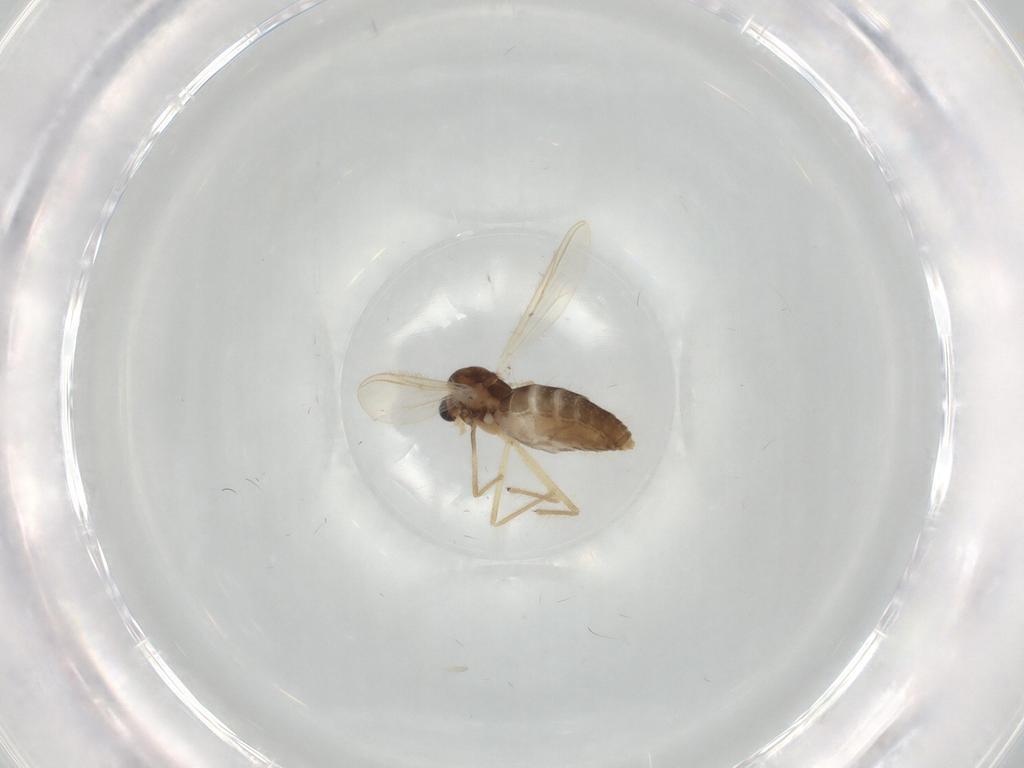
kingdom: Animalia
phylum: Arthropoda
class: Insecta
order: Diptera
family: Chironomidae
